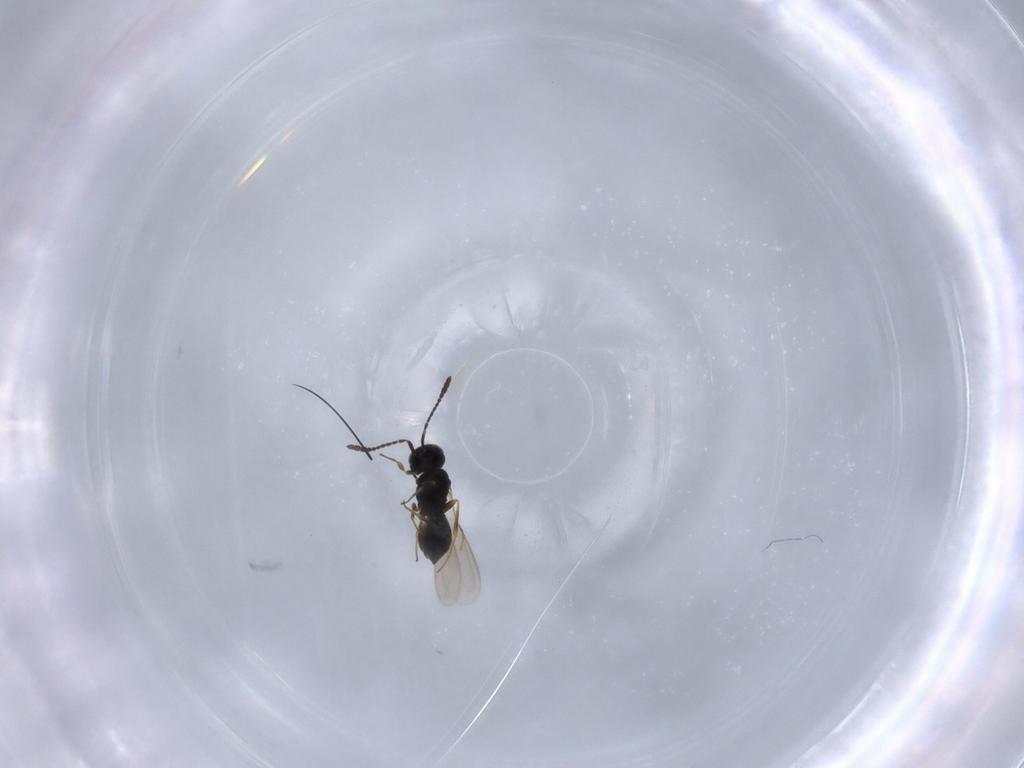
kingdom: Animalia
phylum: Arthropoda
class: Insecta
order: Hymenoptera
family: Scelionidae
